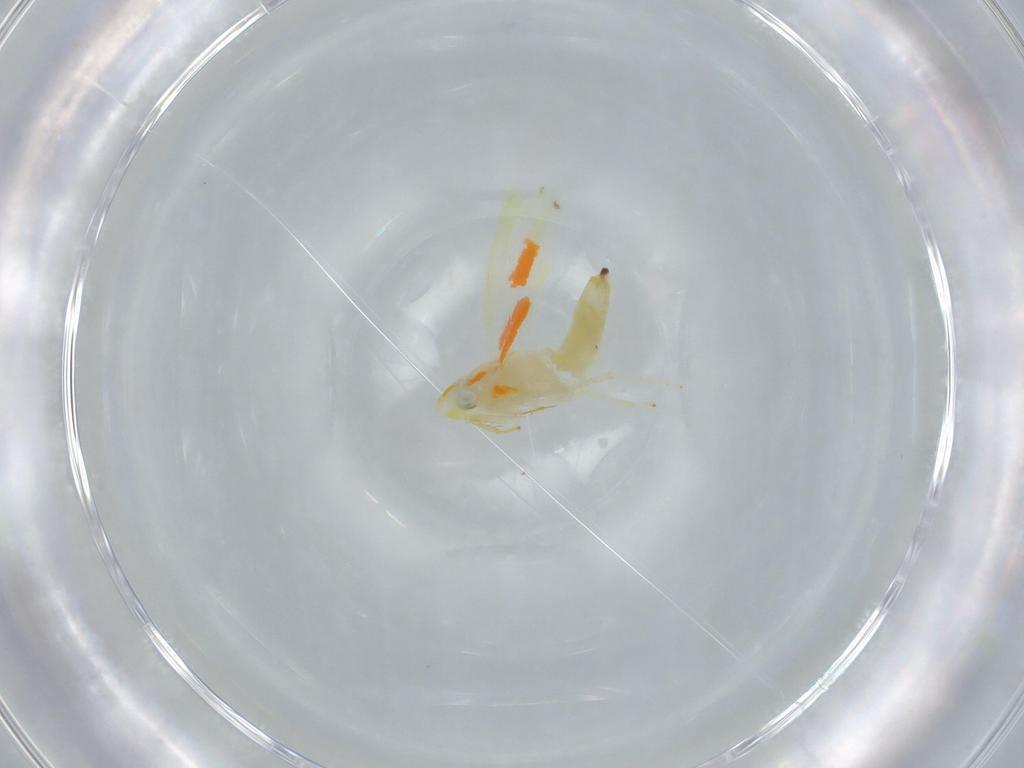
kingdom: Animalia
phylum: Arthropoda
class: Insecta
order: Hemiptera
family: Cicadellidae
